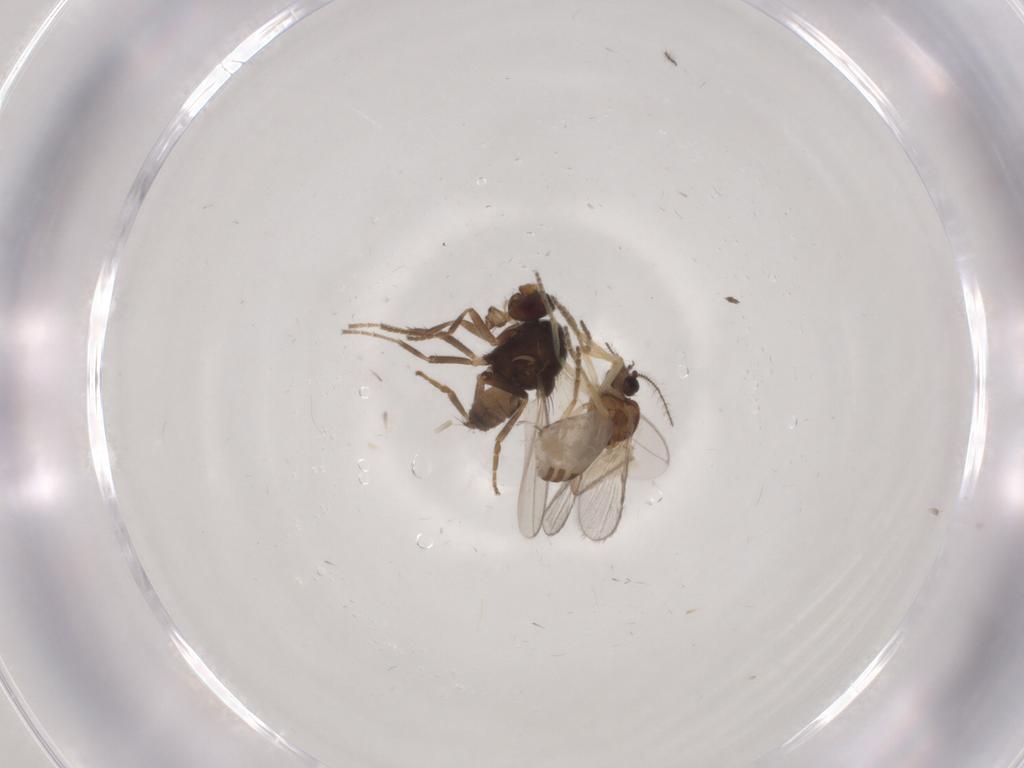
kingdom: Animalia
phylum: Arthropoda
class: Insecta
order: Diptera
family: Sphaeroceridae
